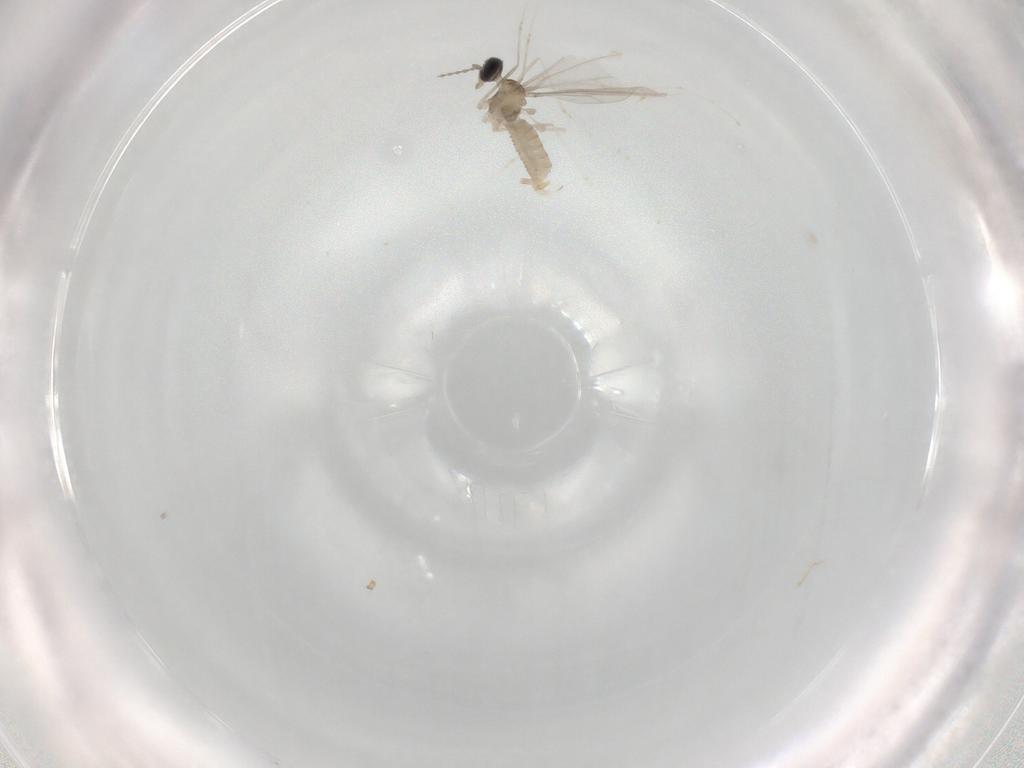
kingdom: Animalia
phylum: Arthropoda
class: Insecta
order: Diptera
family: Cecidomyiidae
